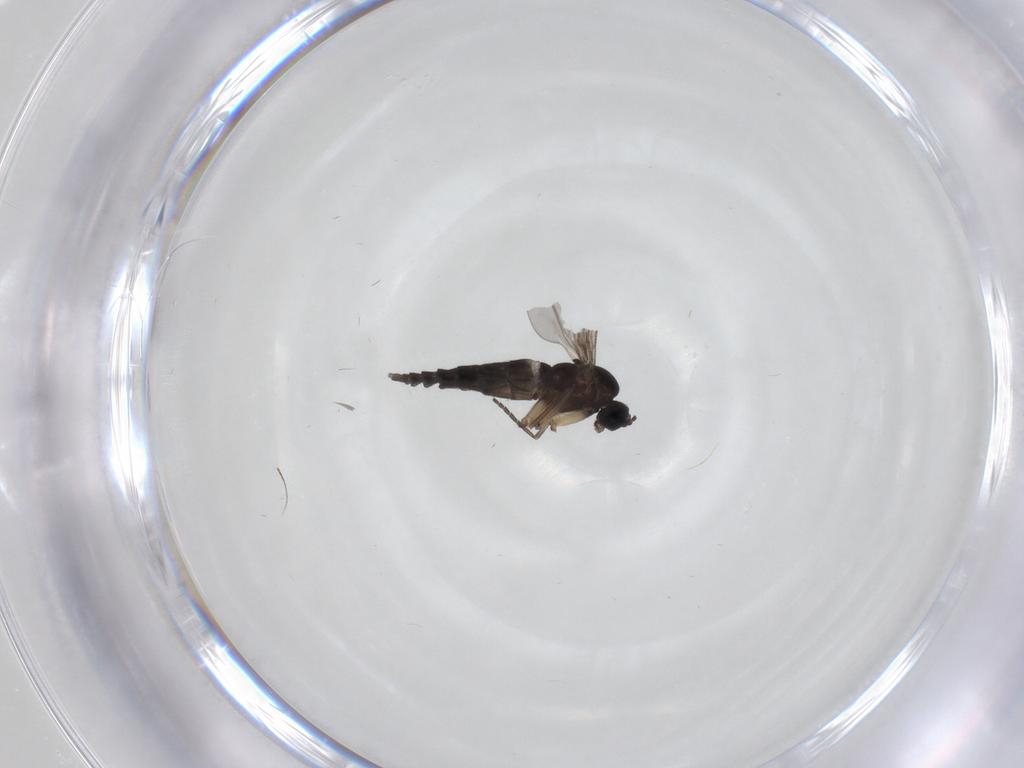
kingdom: Animalia
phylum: Arthropoda
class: Insecta
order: Diptera
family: Sciaridae
